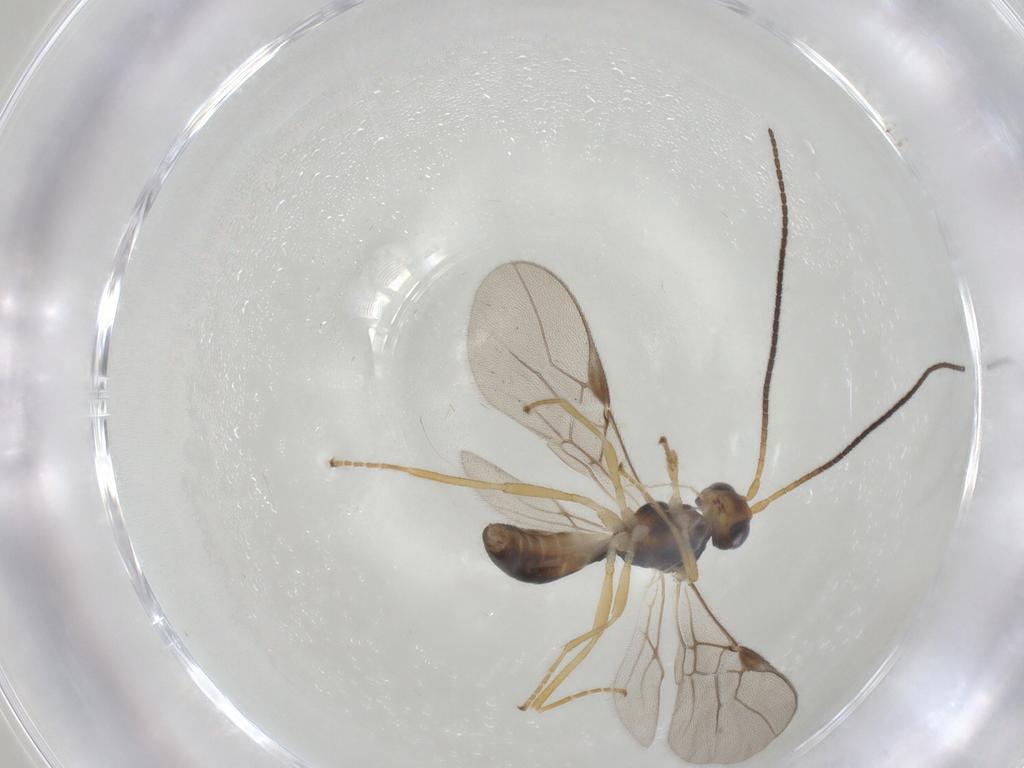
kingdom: Animalia
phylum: Arthropoda
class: Insecta
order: Hymenoptera
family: Braconidae
